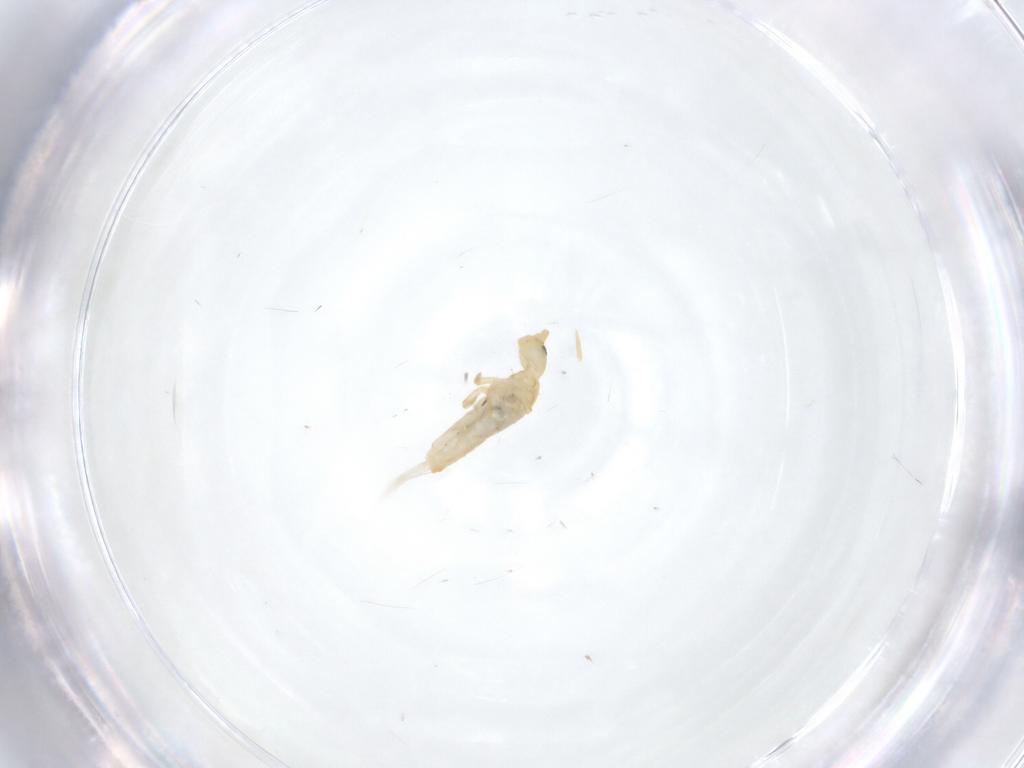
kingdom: Animalia
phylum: Arthropoda
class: Collembola
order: Entomobryomorpha
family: Entomobryidae
